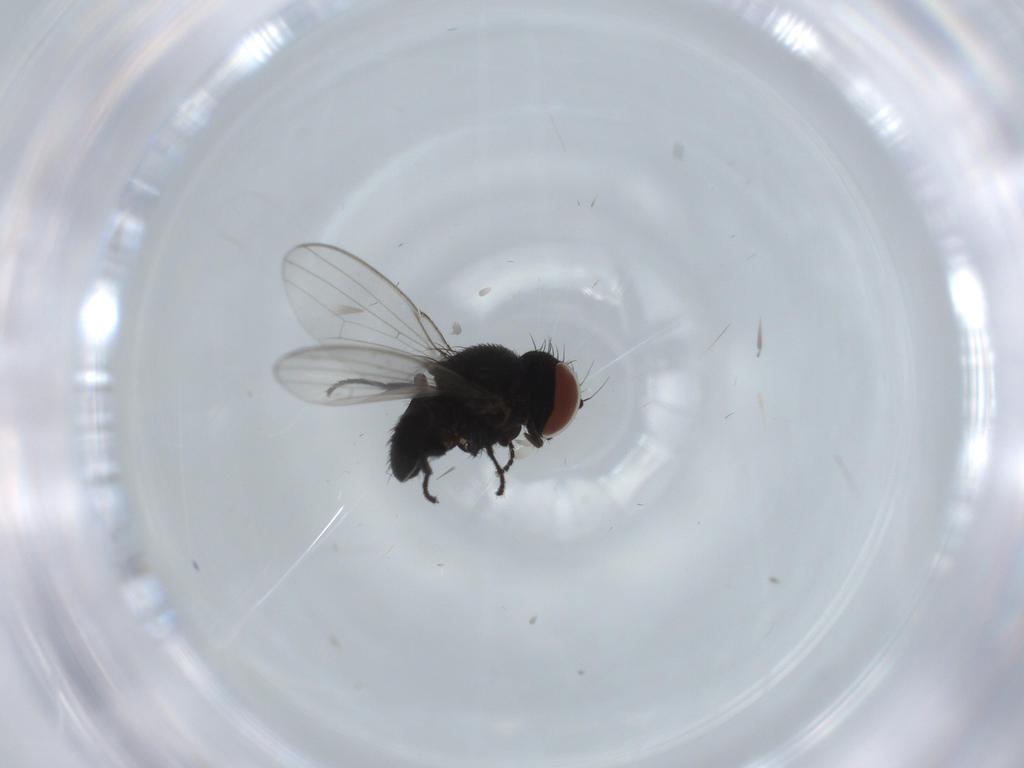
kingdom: Animalia
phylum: Arthropoda
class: Insecta
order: Diptera
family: Milichiidae
